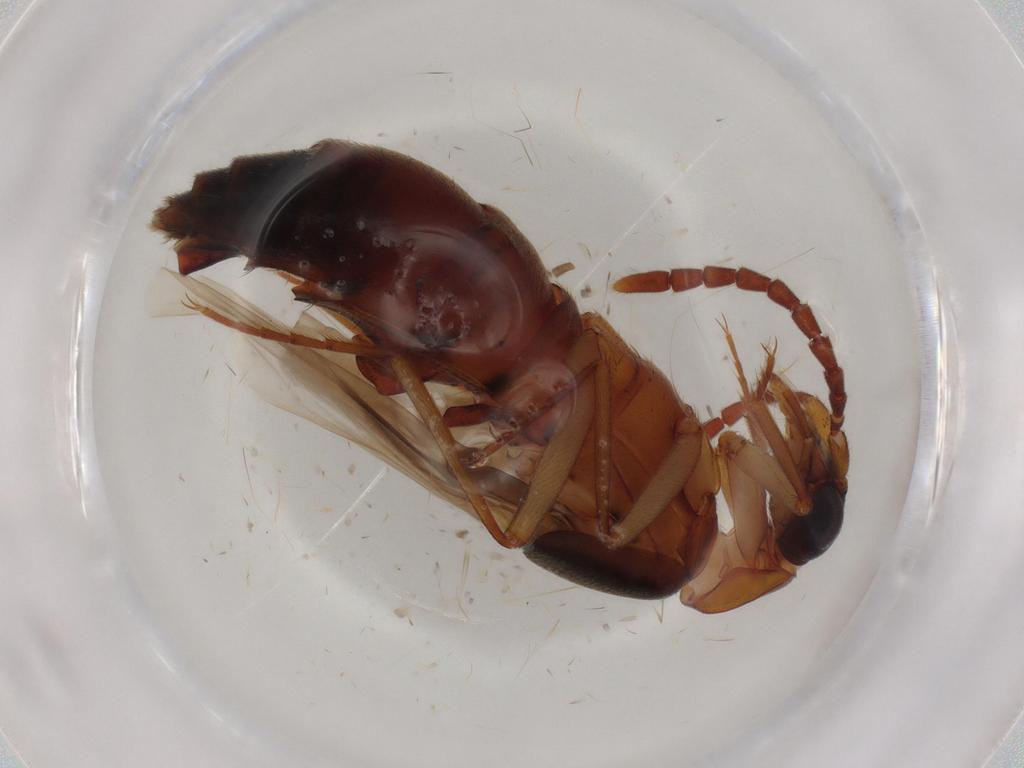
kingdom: Animalia
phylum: Arthropoda
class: Insecta
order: Coleoptera
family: Staphylinidae
